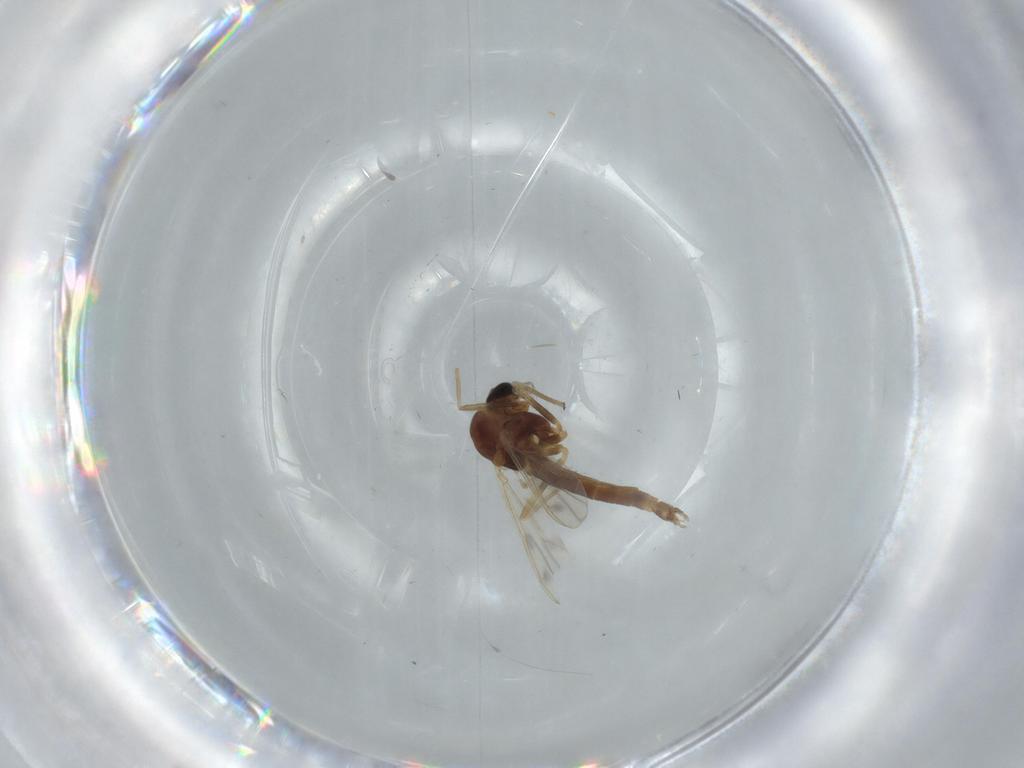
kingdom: Animalia
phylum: Arthropoda
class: Insecta
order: Diptera
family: Chironomidae
